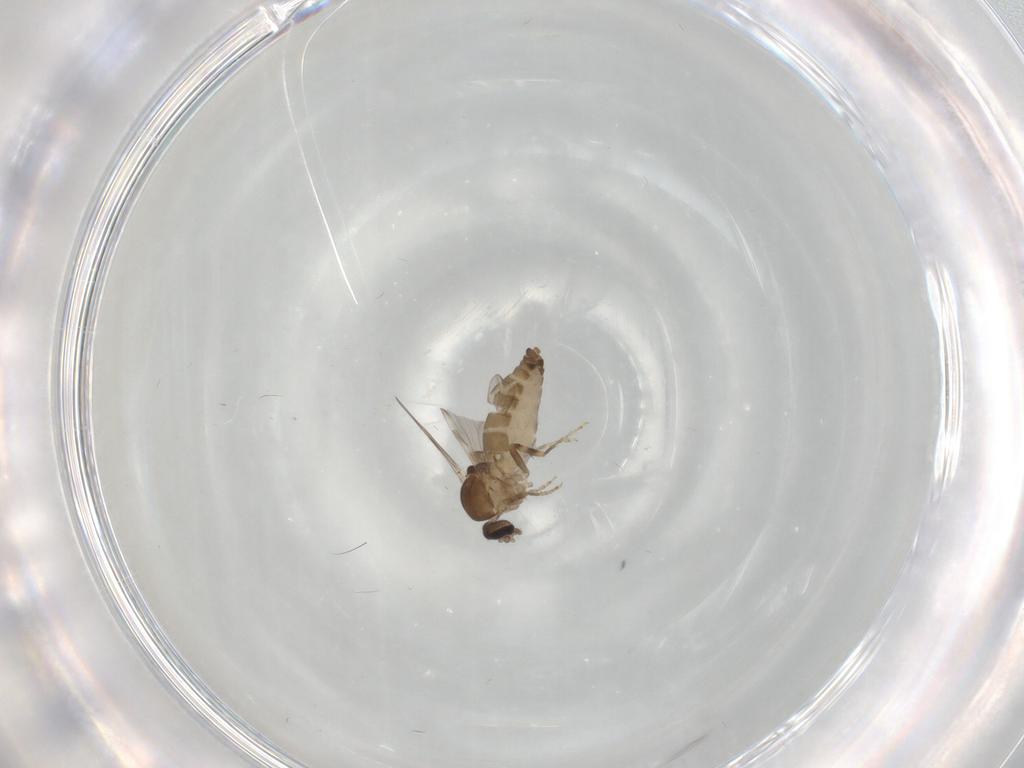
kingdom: Animalia
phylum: Arthropoda
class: Insecta
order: Diptera
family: Ceratopogonidae
